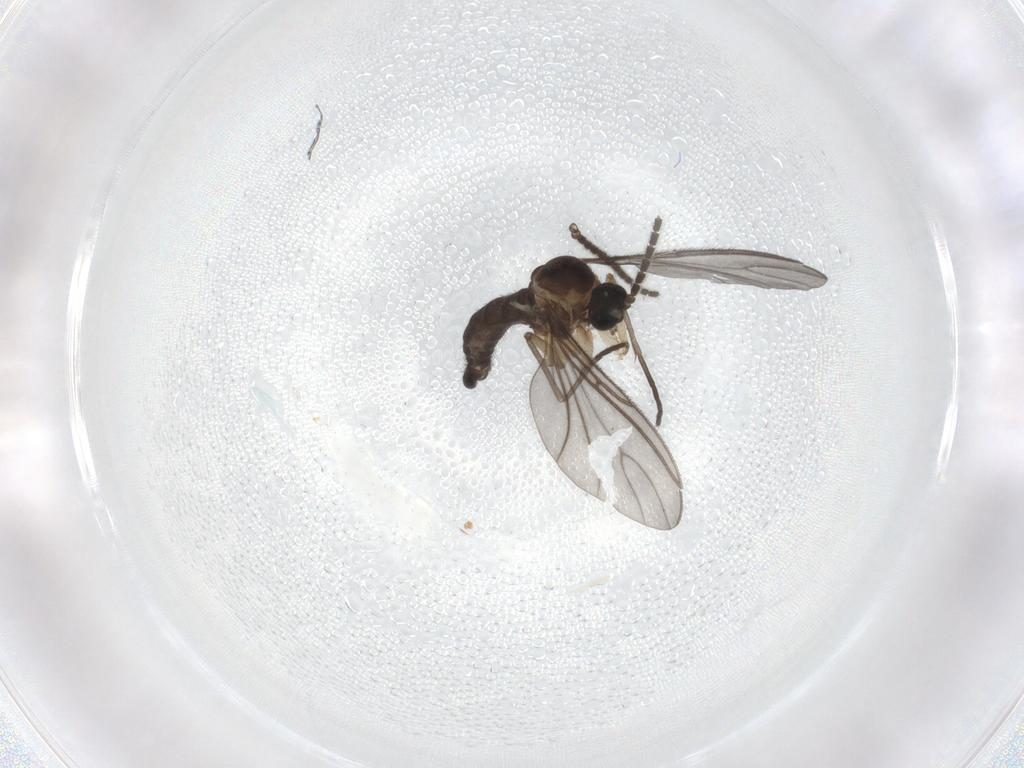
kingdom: Animalia
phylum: Arthropoda
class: Insecta
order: Diptera
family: Sciaridae
